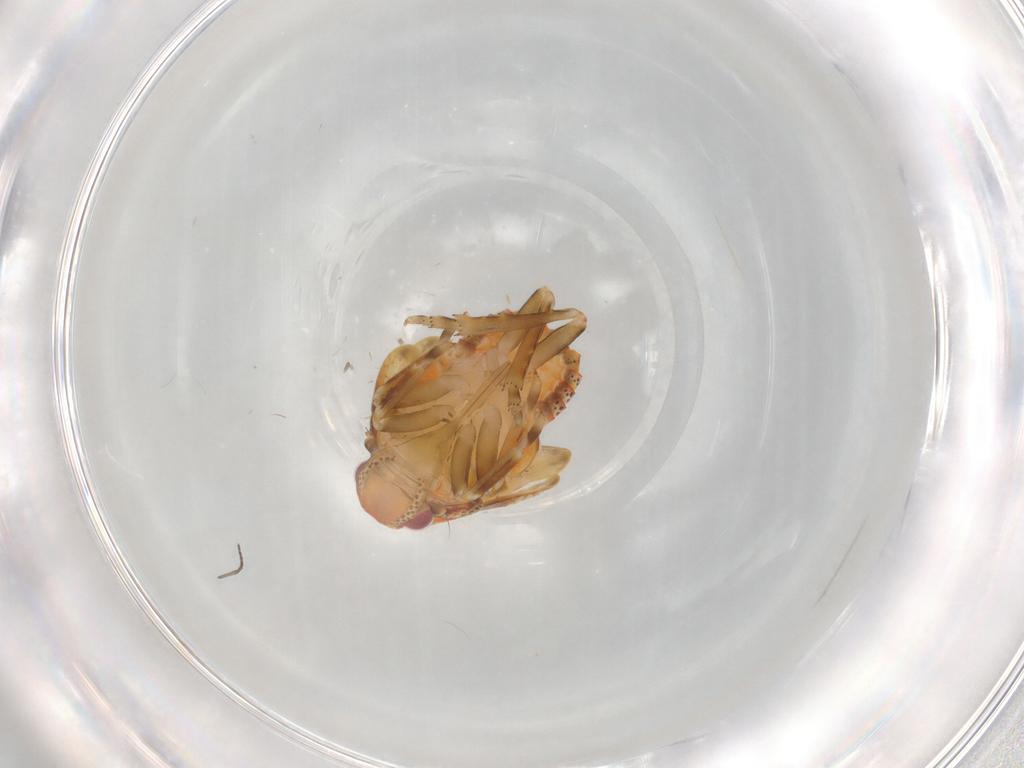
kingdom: Animalia
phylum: Arthropoda
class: Insecta
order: Hemiptera
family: Flatidae
